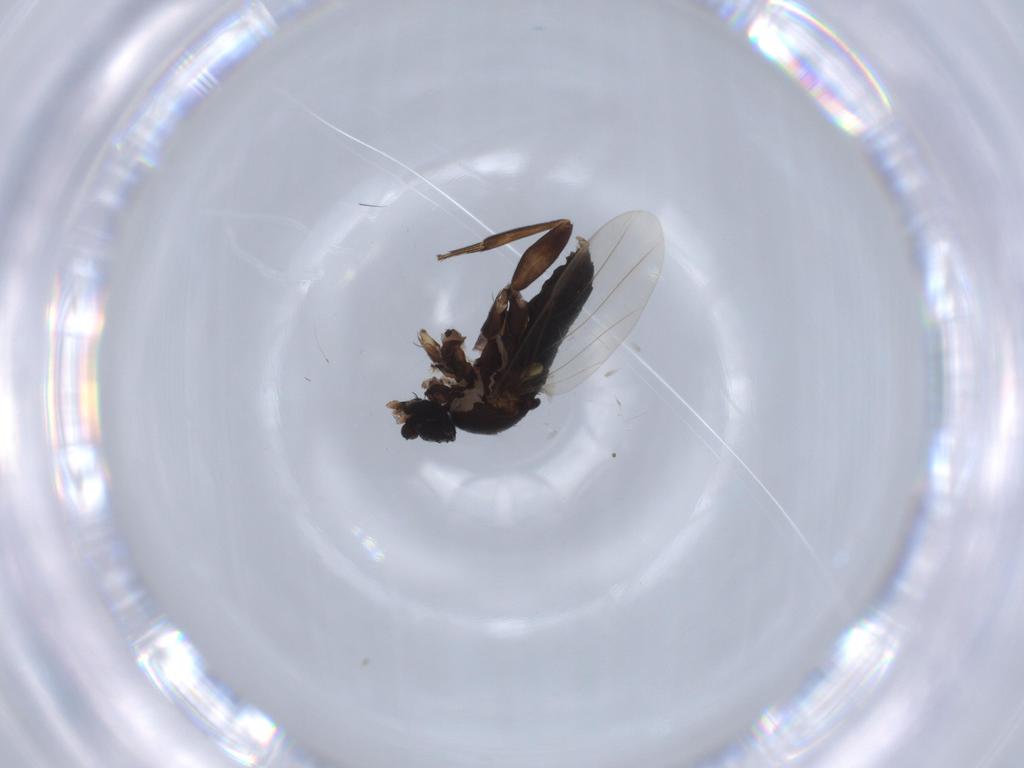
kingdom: Animalia
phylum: Arthropoda
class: Insecta
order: Diptera
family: Phoridae
